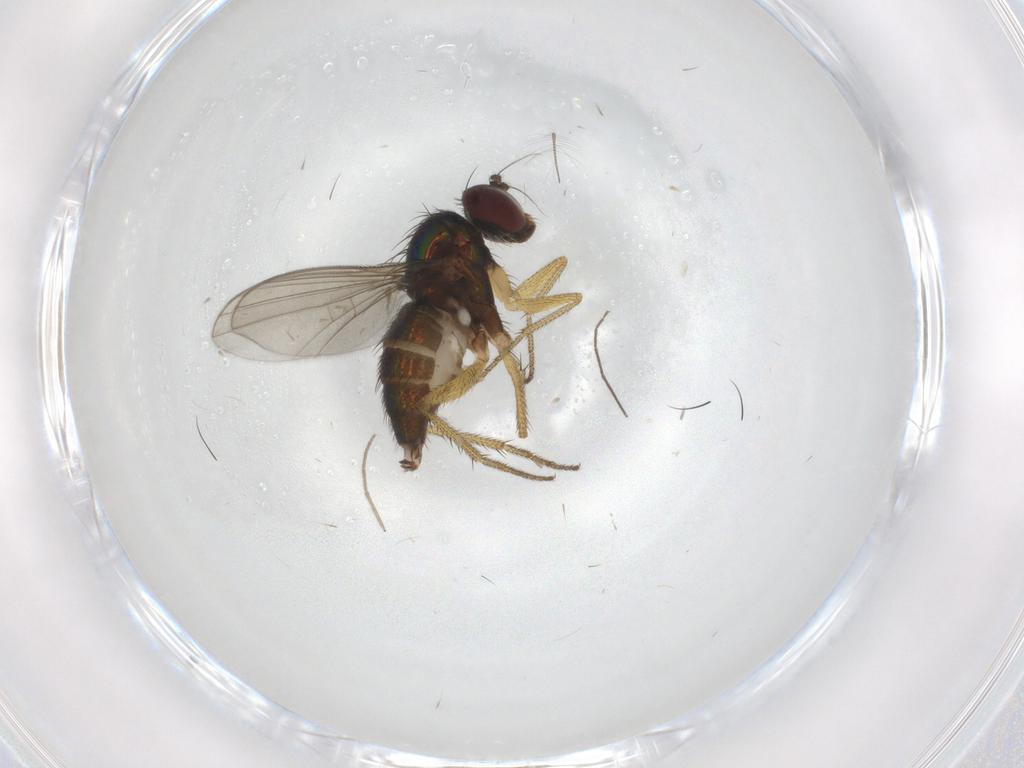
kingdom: Animalia
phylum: Arthropoda
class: Insecta
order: Diptera
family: Dolichopodidae
